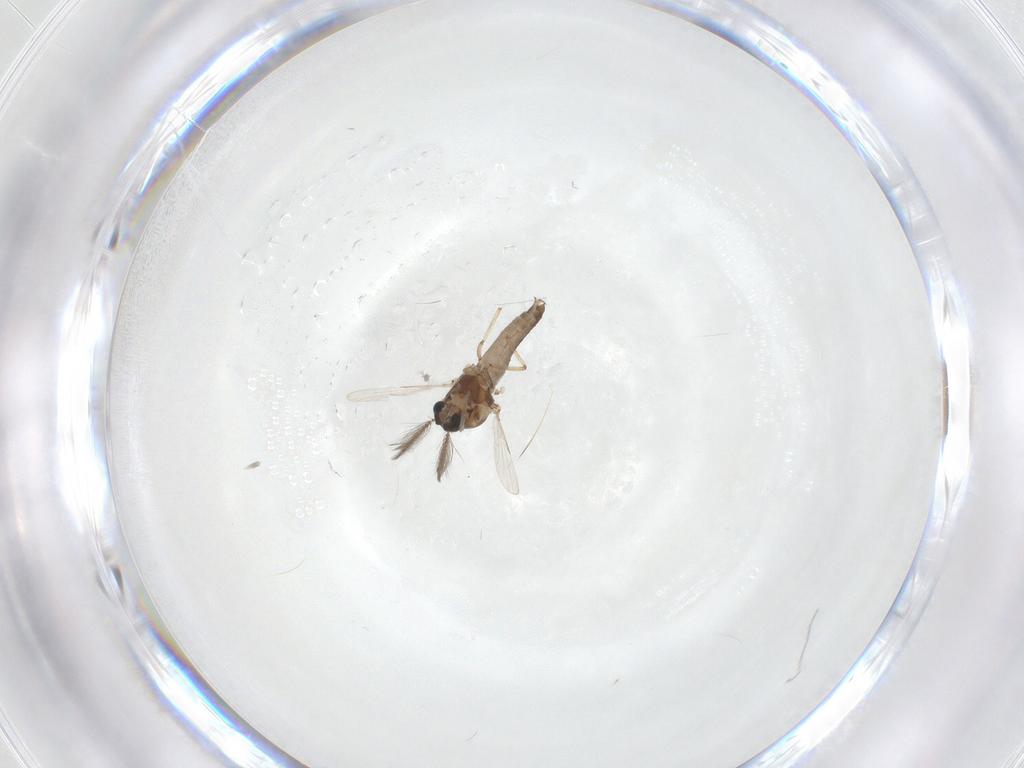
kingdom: Animalia
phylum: Arthropoda
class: Insecta
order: Diptera
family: Ceratopogonidae
